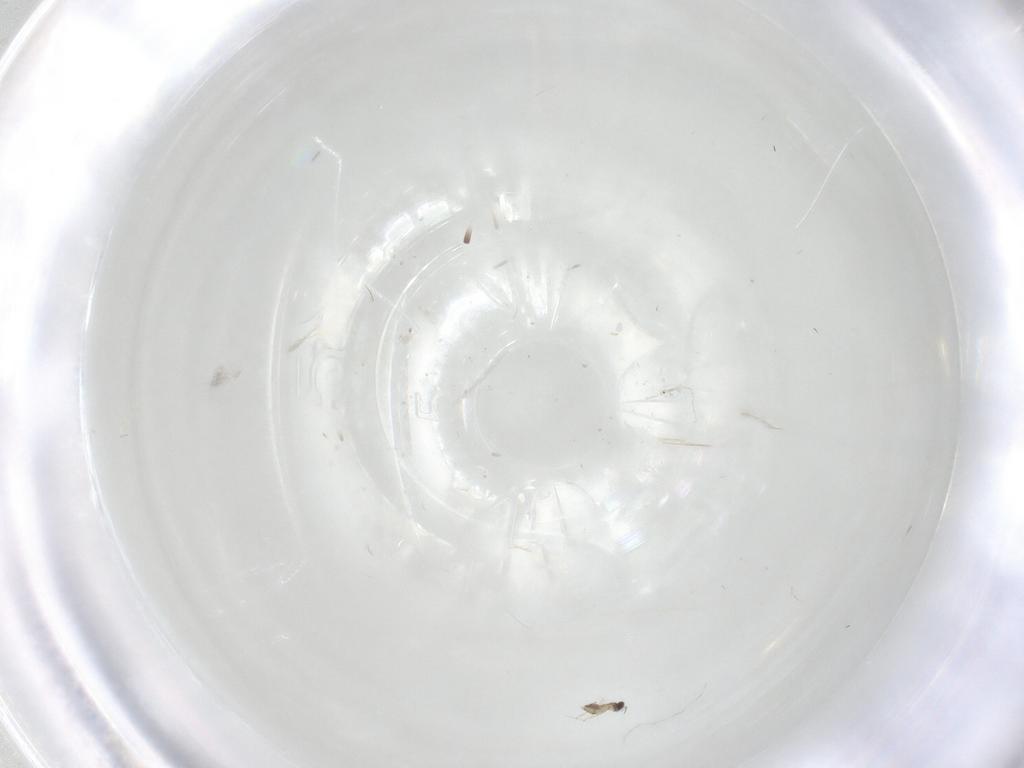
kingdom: Animalia
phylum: Arthropoda
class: Insecta
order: Diptera
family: Cecidomyiidae
